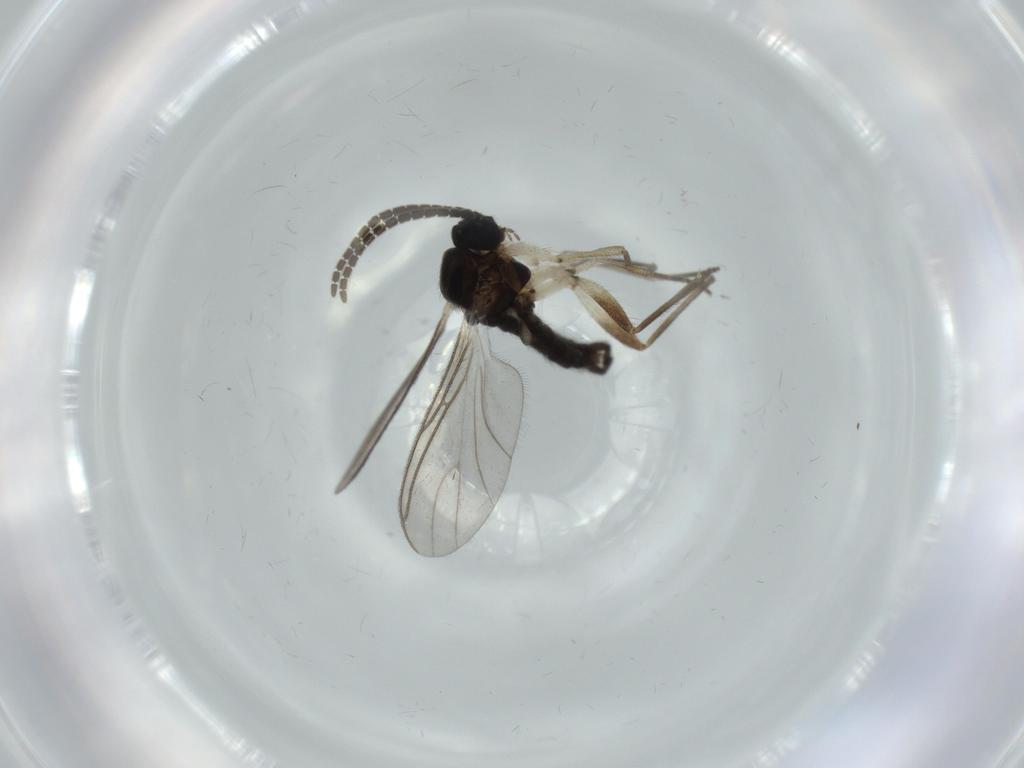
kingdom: Animalia
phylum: Arthropoda
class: Insecta
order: Diptera
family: Sciaridae
